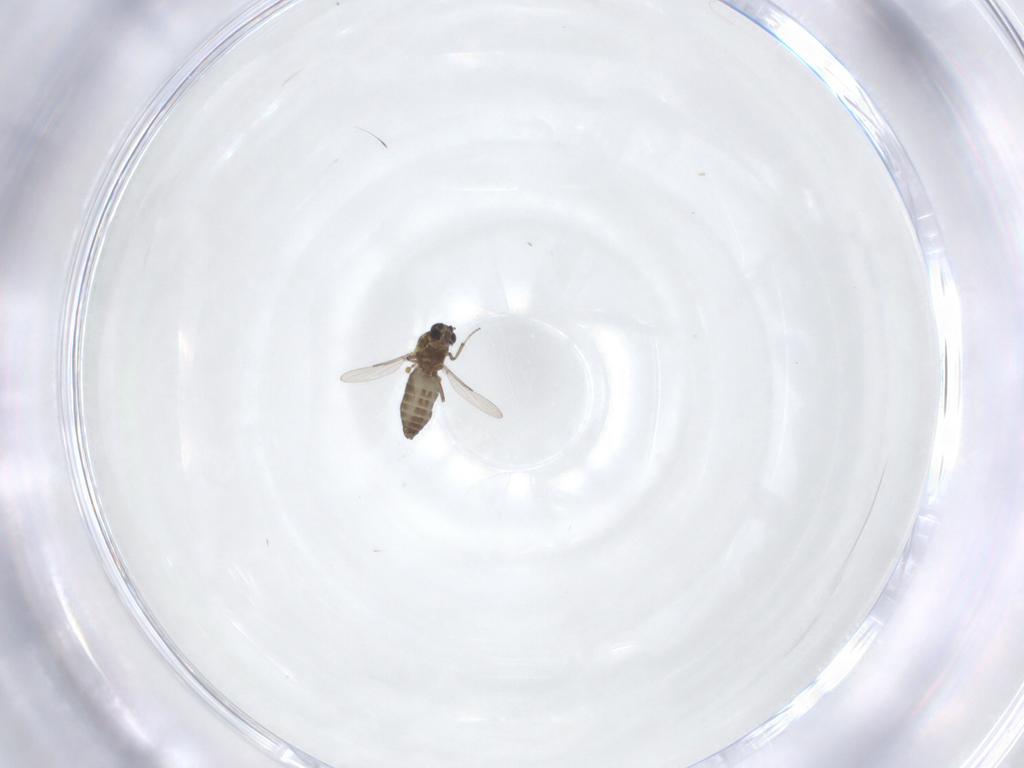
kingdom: Animalia
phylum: Arthropoda
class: Insecta
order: Diptera
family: Ceratopogonidae
